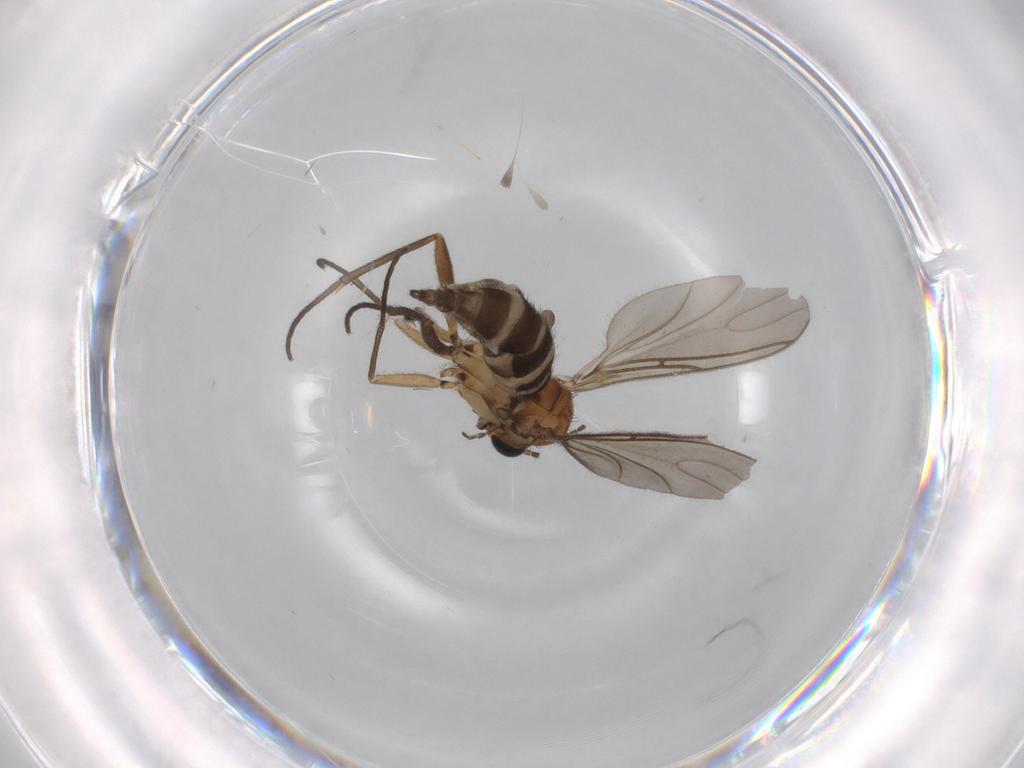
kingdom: Animalia
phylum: Arthropoda
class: Insecta
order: Diptera
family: Sciaridae
